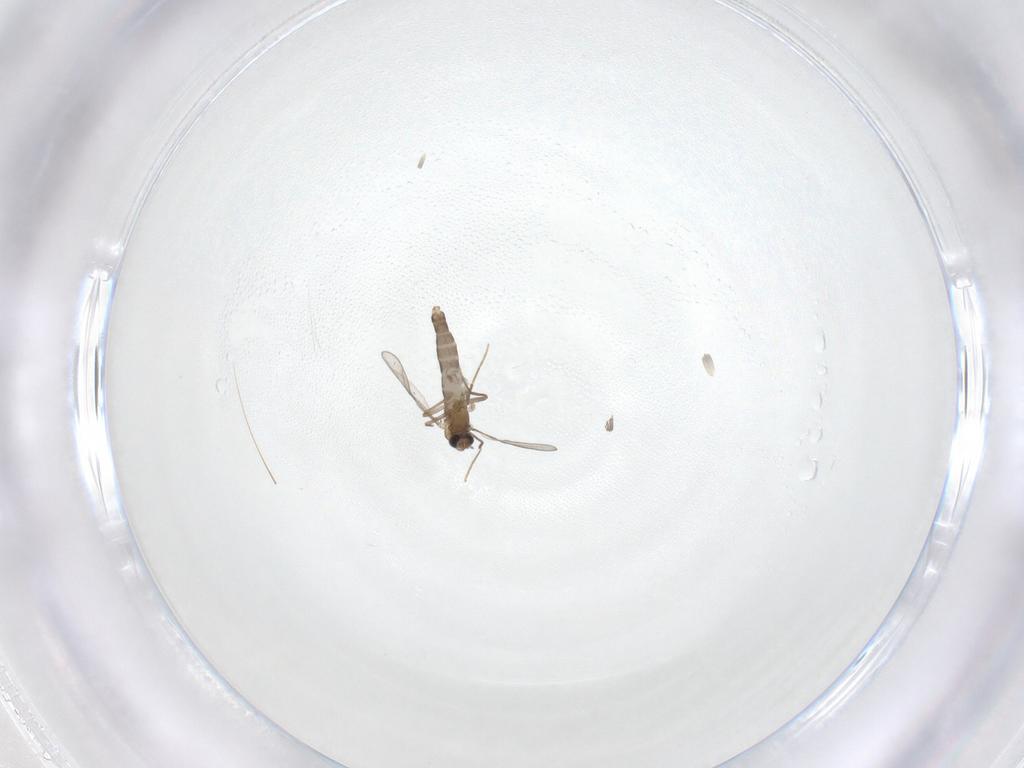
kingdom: Animalia
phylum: Arthropoda
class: Insecta
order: Diptera
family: Chironomidae
